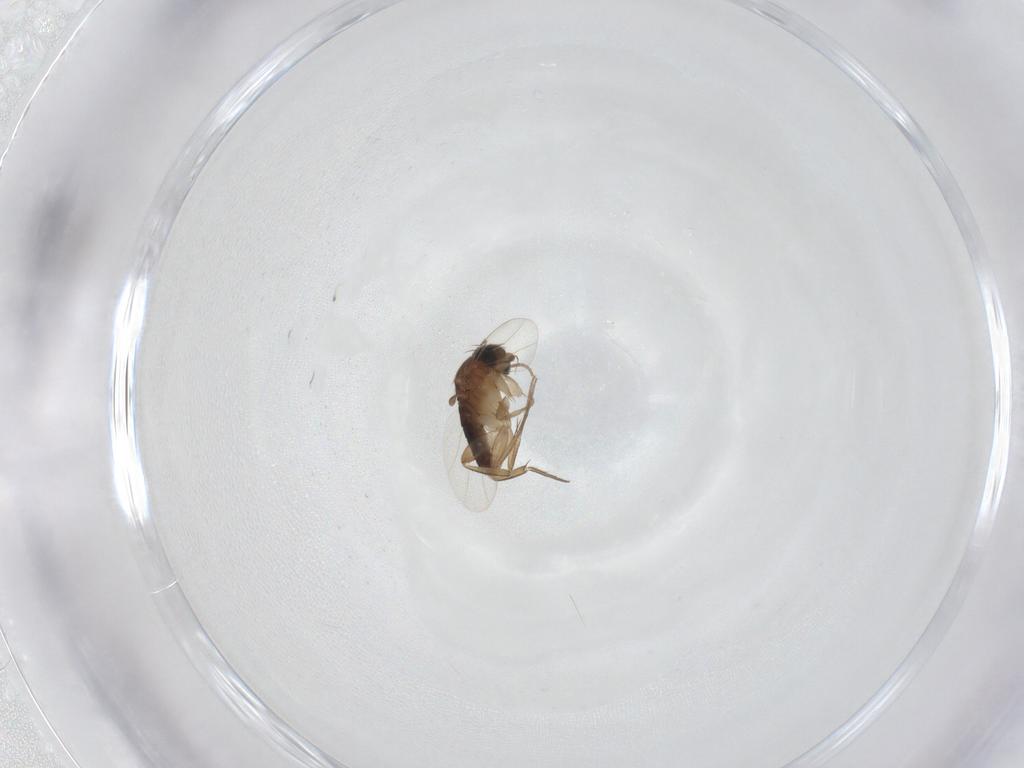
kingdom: Animalia
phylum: Arthropoda
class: Insecta
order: Diptera
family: Phoridae
